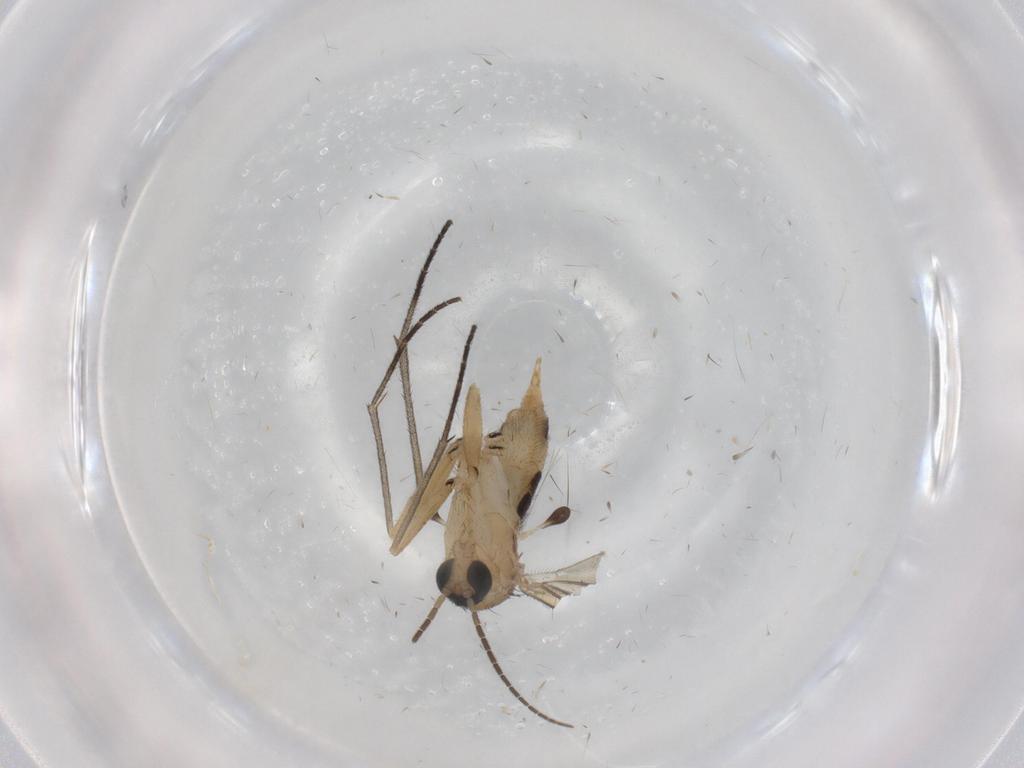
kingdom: Animalia
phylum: Arthropoda
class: Insecta
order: Diptera
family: Sciaridae
